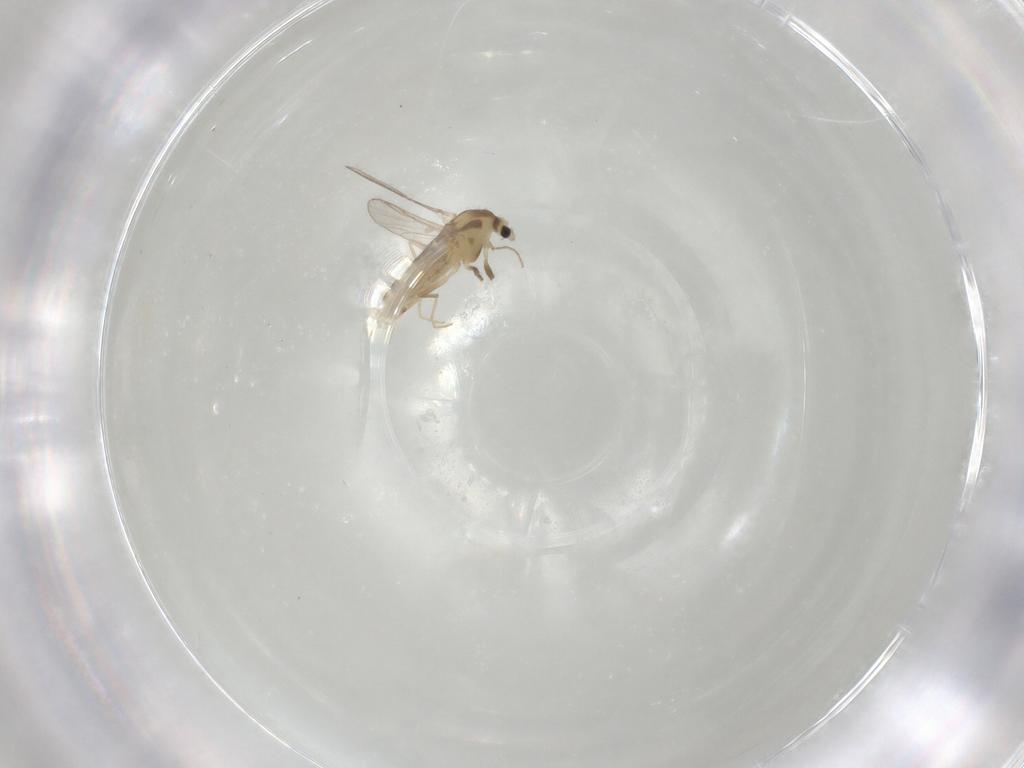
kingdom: Animalia
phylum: Arthropoda
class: Insecta
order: Diptera
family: Chironomidae
